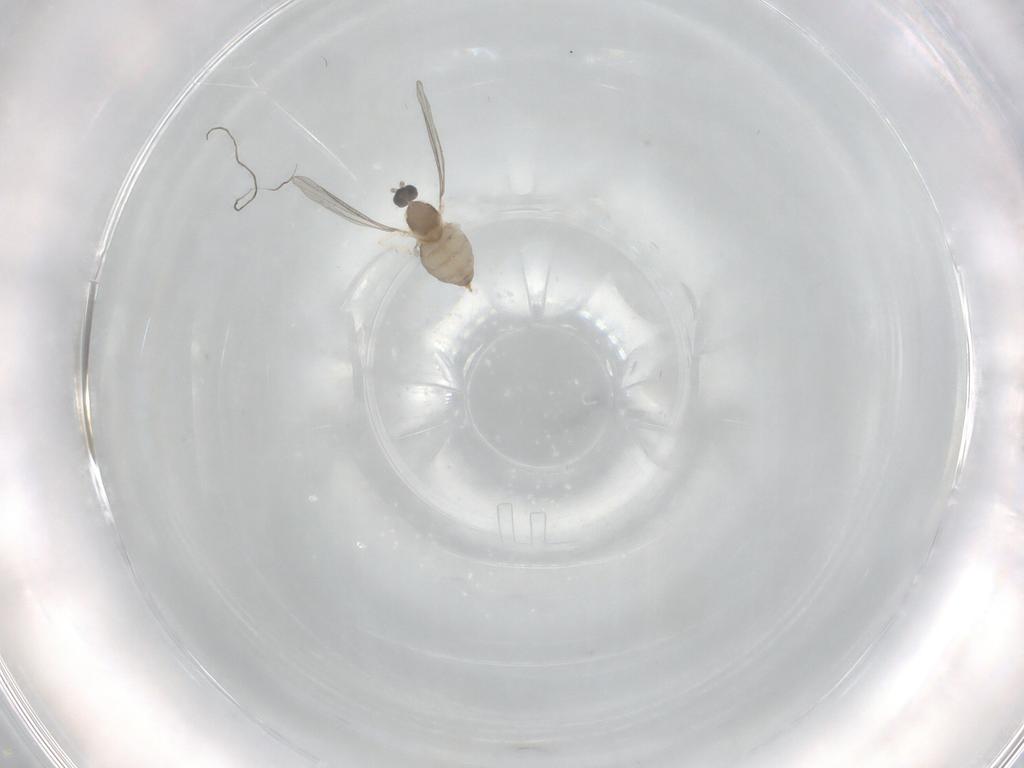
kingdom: Animalia
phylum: Arthropoda
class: Insecta
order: Diptera
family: Cecidomyiidae
